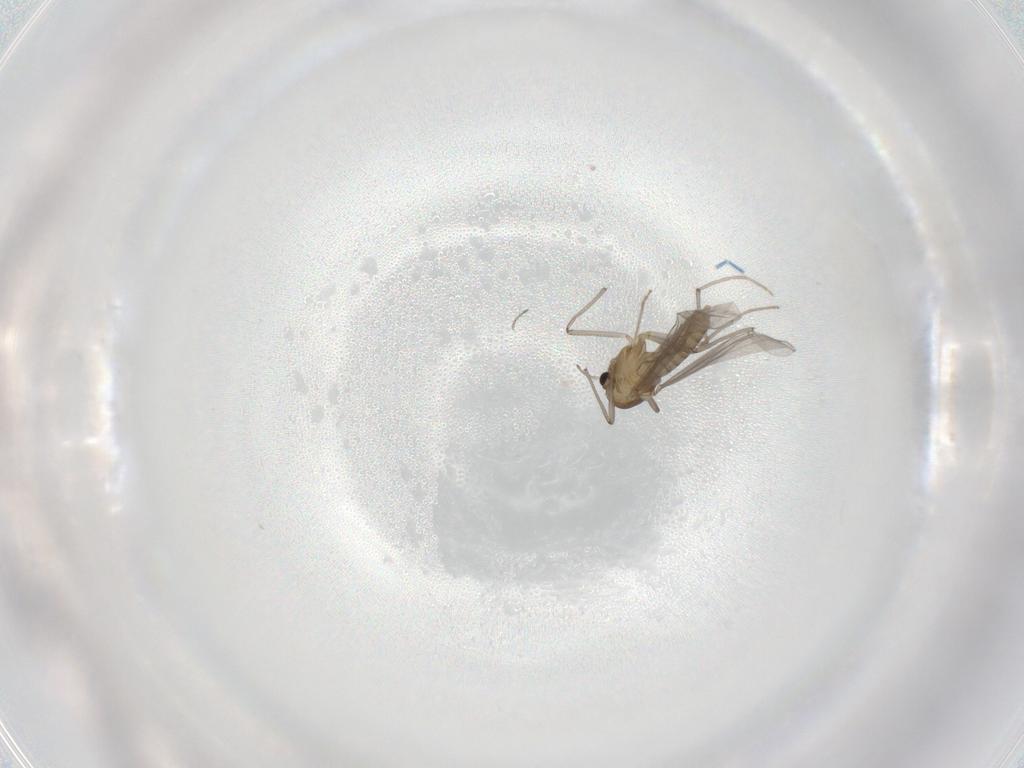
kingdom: Animalia
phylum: Arthropoda
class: Insecta
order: Diptera
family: Chironomidae
